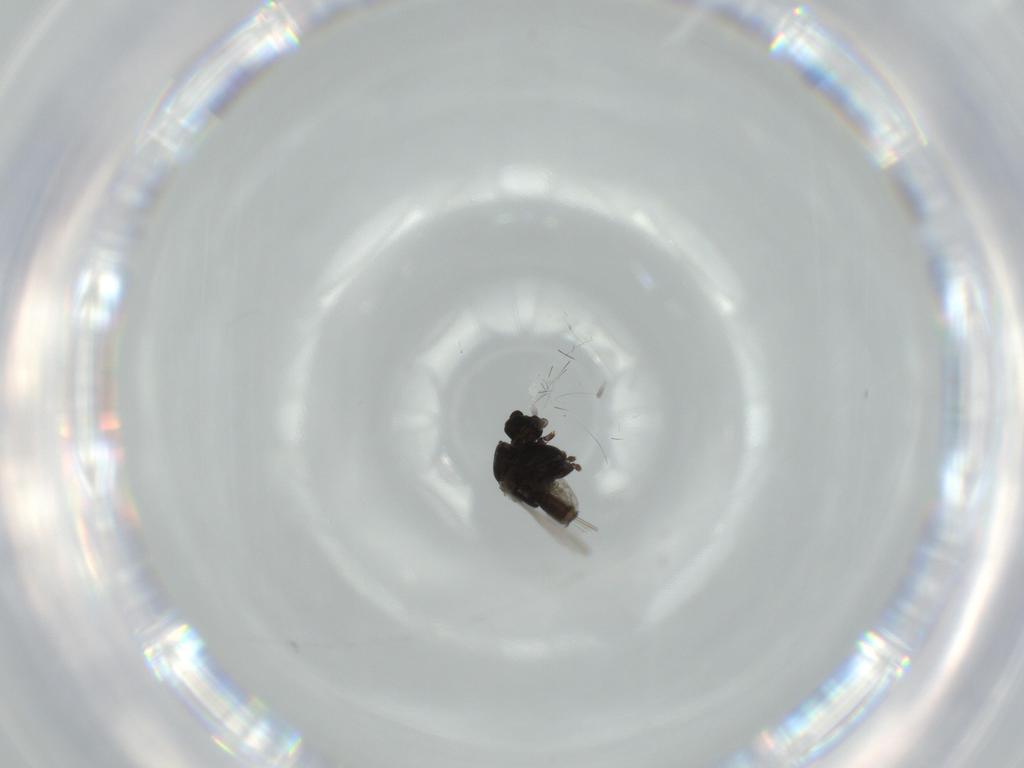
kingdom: Animalia
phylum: Arthropoda
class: Insecta
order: Diptera
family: Chironomidae
